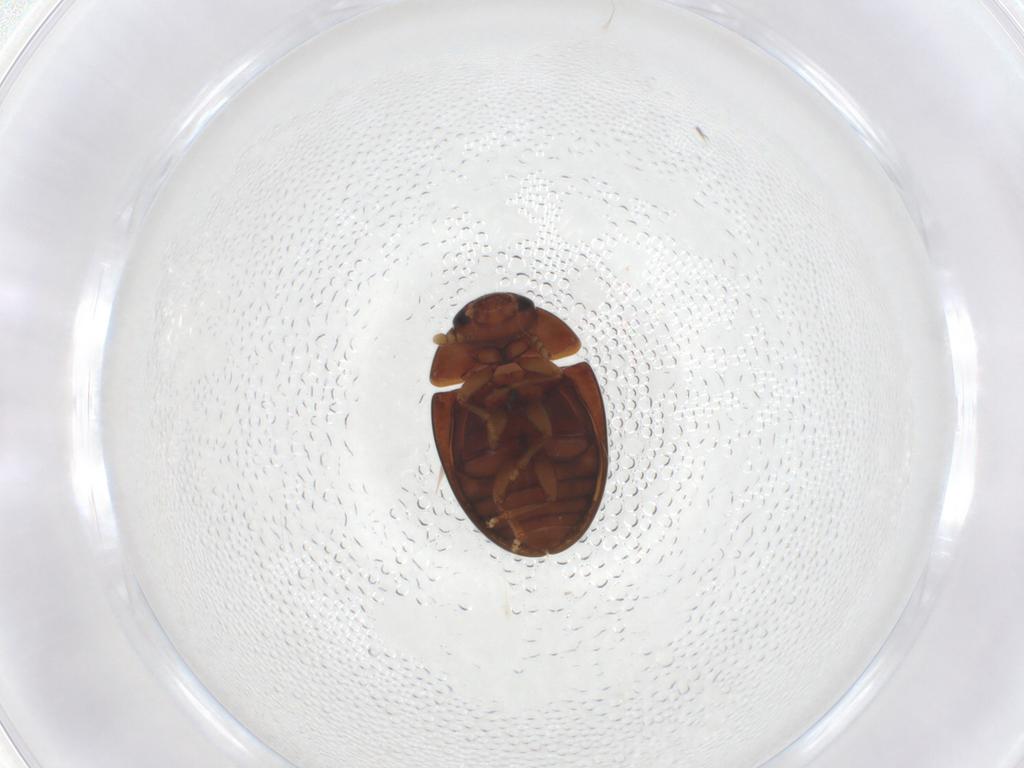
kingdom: Animalia
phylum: Arthropoda
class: Insecta
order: Coleoptera
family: Phalacridae
